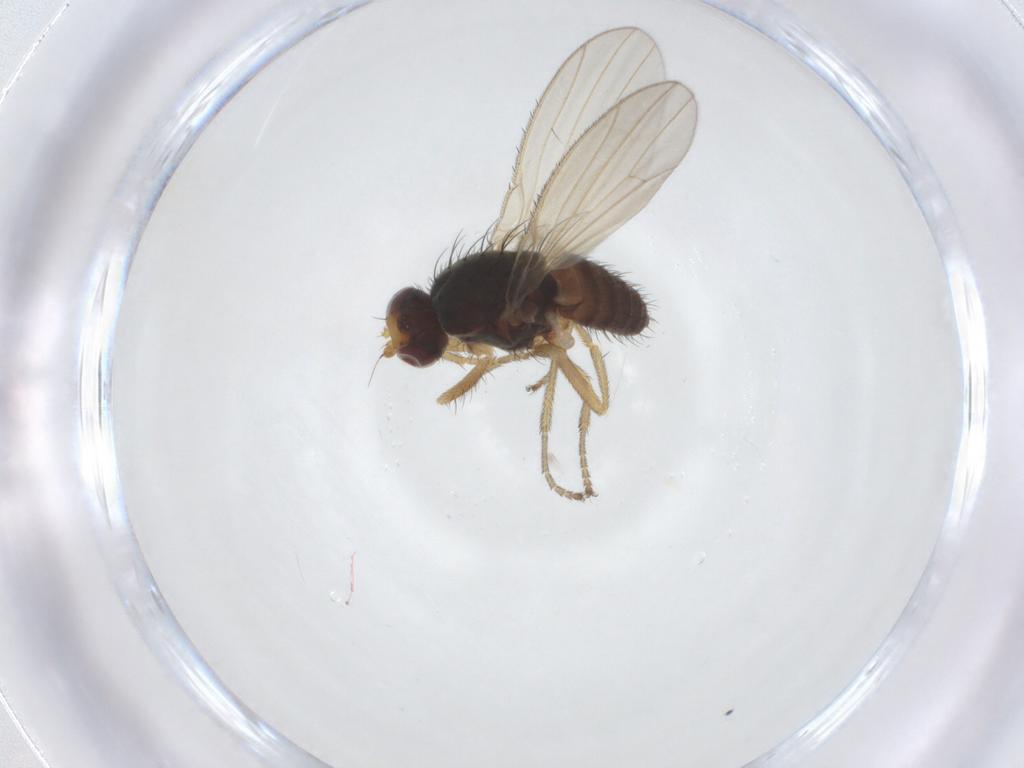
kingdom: Animalia
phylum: Arthropoda
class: Insecta
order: Diptera
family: Heleomyzidae
